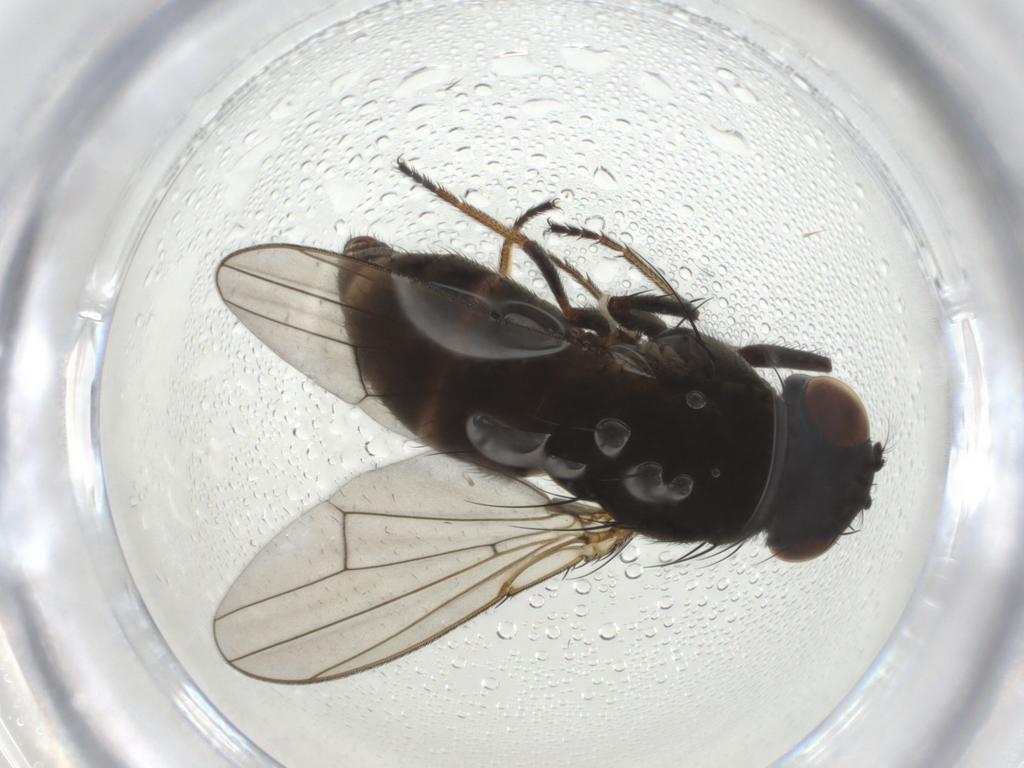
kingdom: Animalia
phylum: Arthropoda
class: Insecta
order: Diptera
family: Ephydridae
